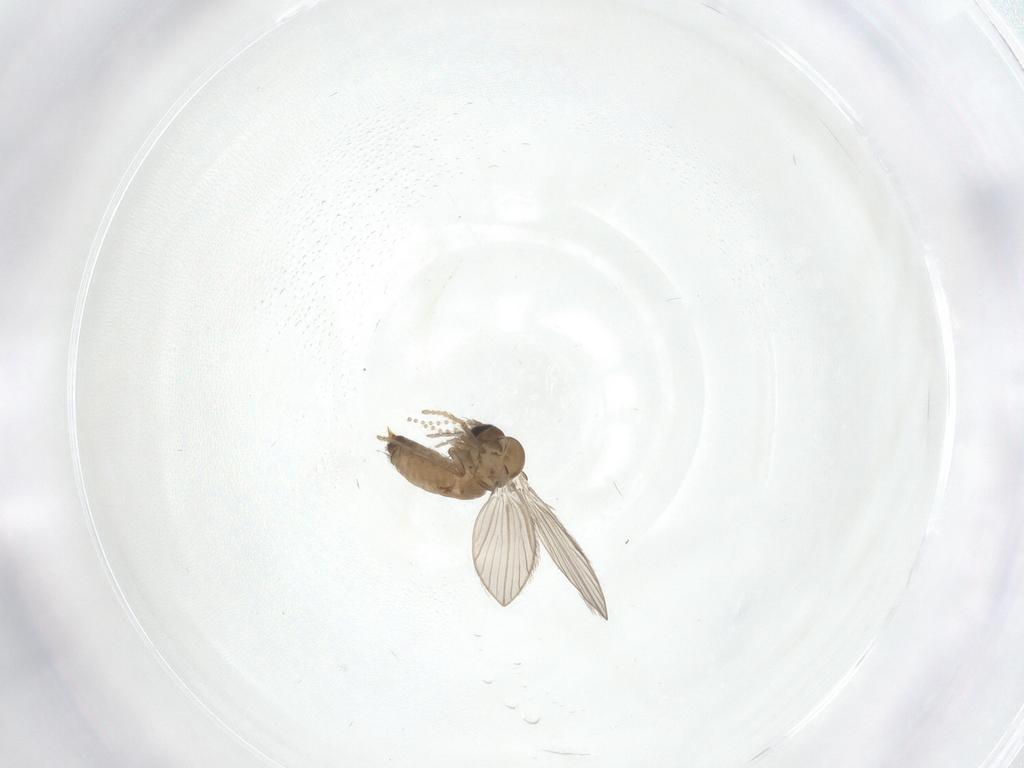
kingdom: Animalia
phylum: Arthropoda
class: Insecta
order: Diptera
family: Psychodidae
